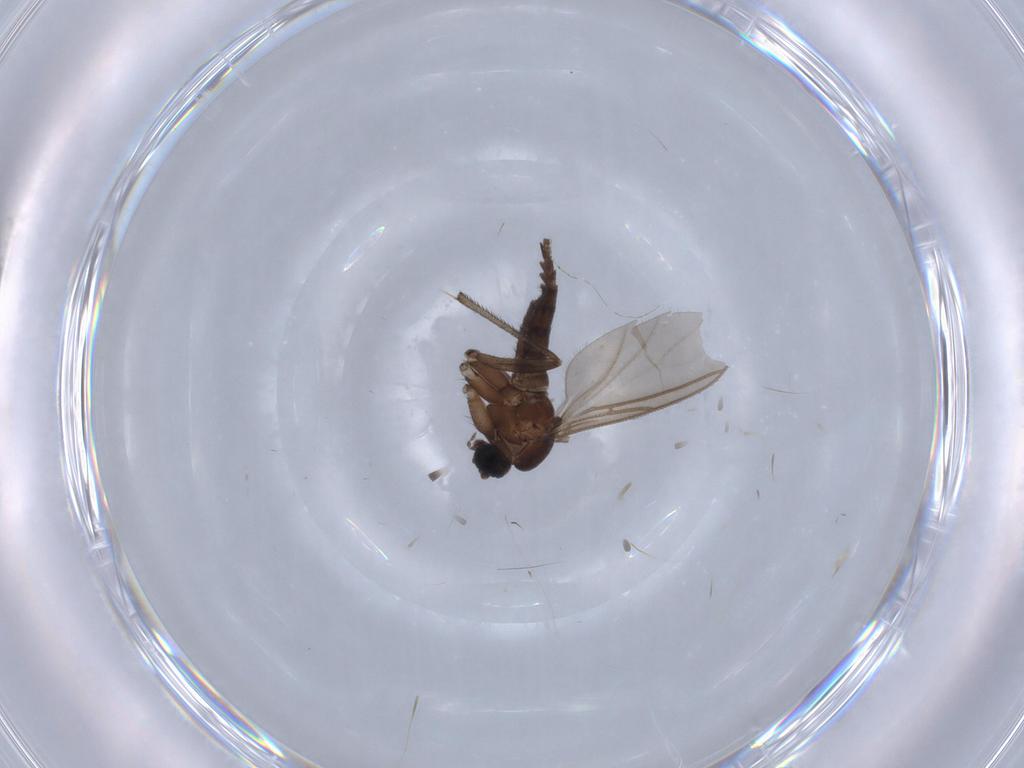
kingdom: Animalia
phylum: Arthropoda
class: Insecta
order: Diptera
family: Sciaridae
